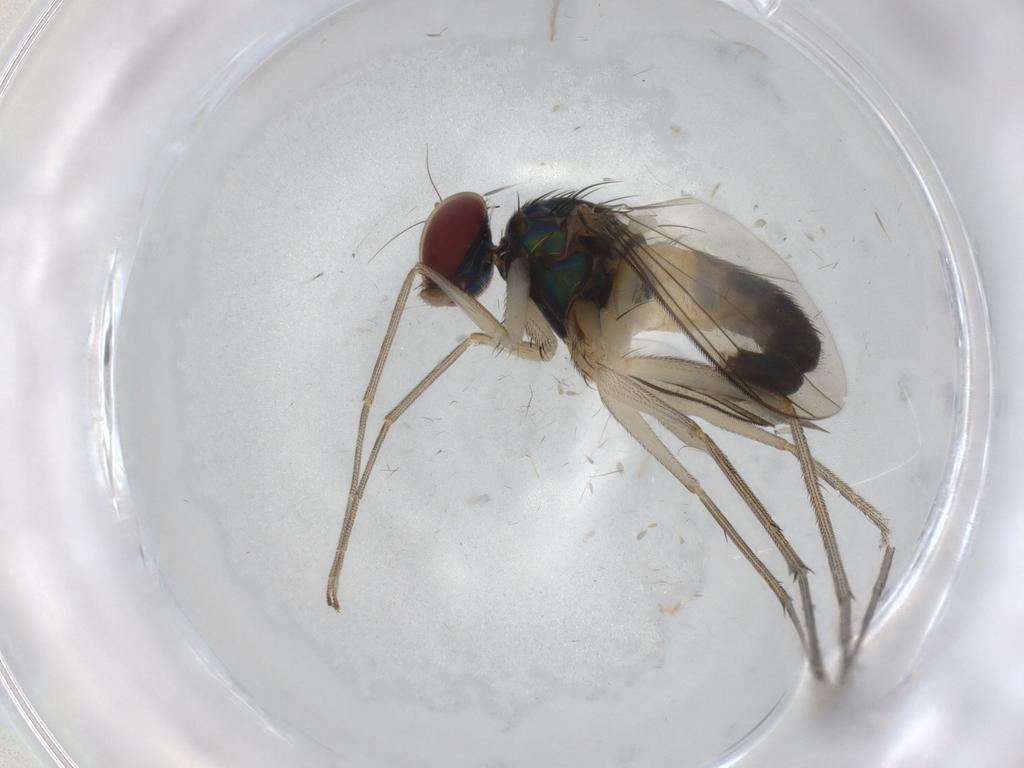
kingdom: Animalia
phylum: Arthropoda
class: Insecta
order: Diptera
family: Dolichopodidae
